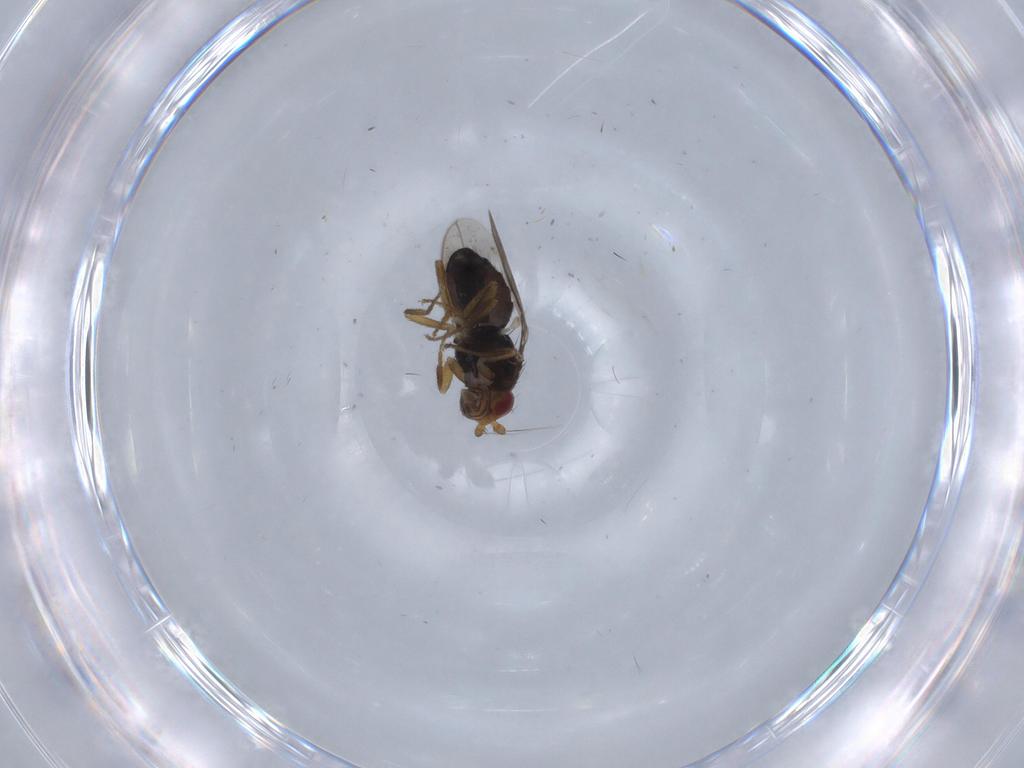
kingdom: Animalia
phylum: Arthropoda
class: Insecta
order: Diptera
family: Sphaeroceridae
